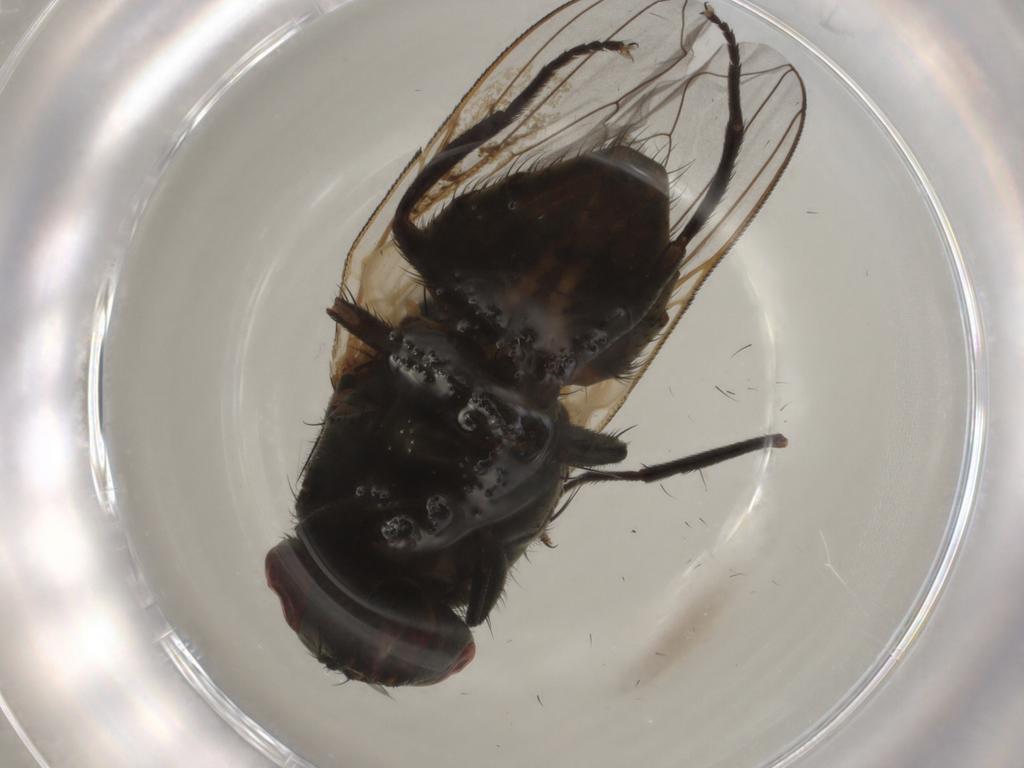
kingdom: Animalia
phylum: Arthropoda
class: Insecta
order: Diptera
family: Muscidae
